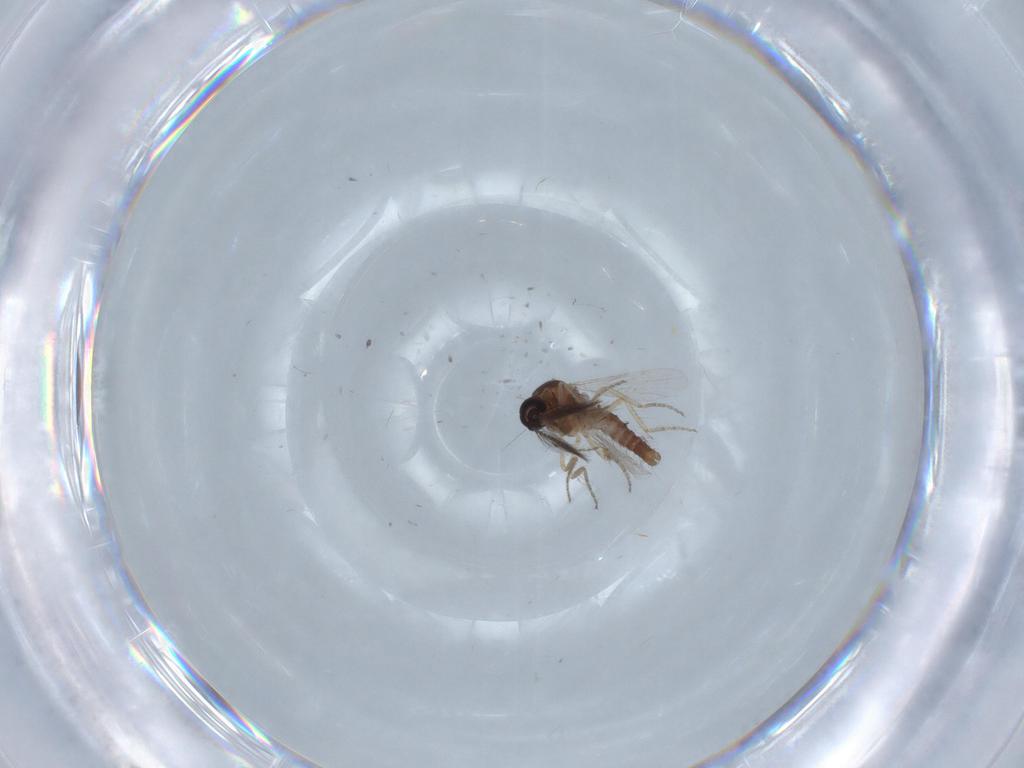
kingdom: Animalia
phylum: Arthropoda
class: Insecta
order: Diptera
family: Ceratopogonidae
